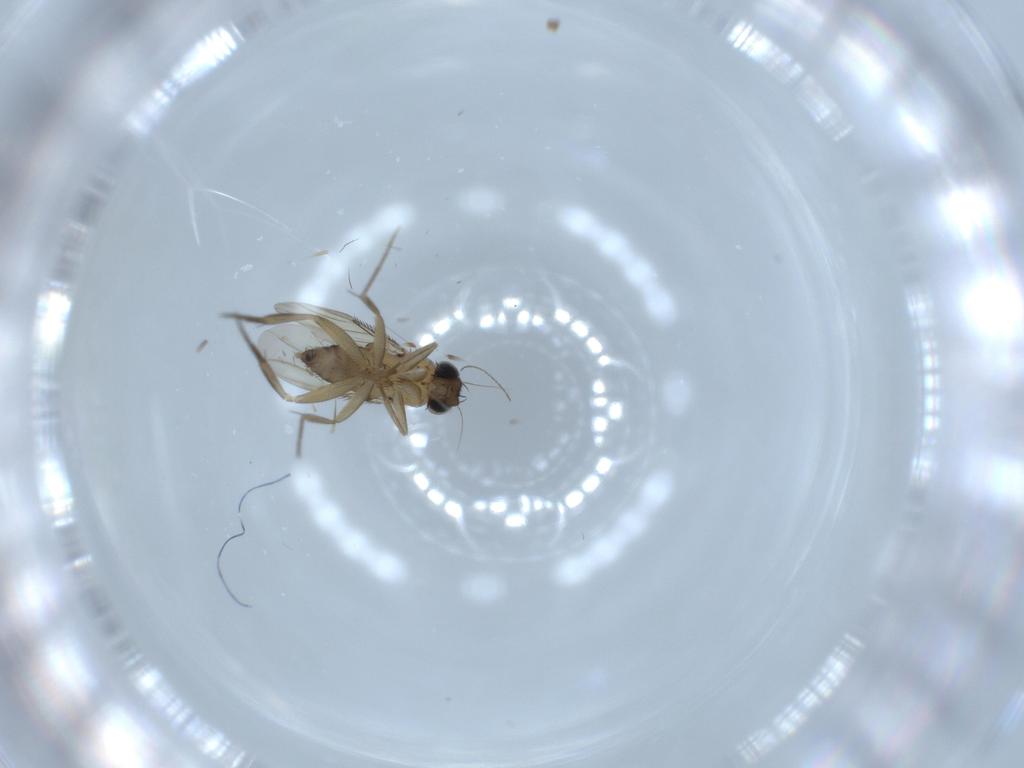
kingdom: Animalia
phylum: Arthropoda
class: Insecta
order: Diptera
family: Phoridae
